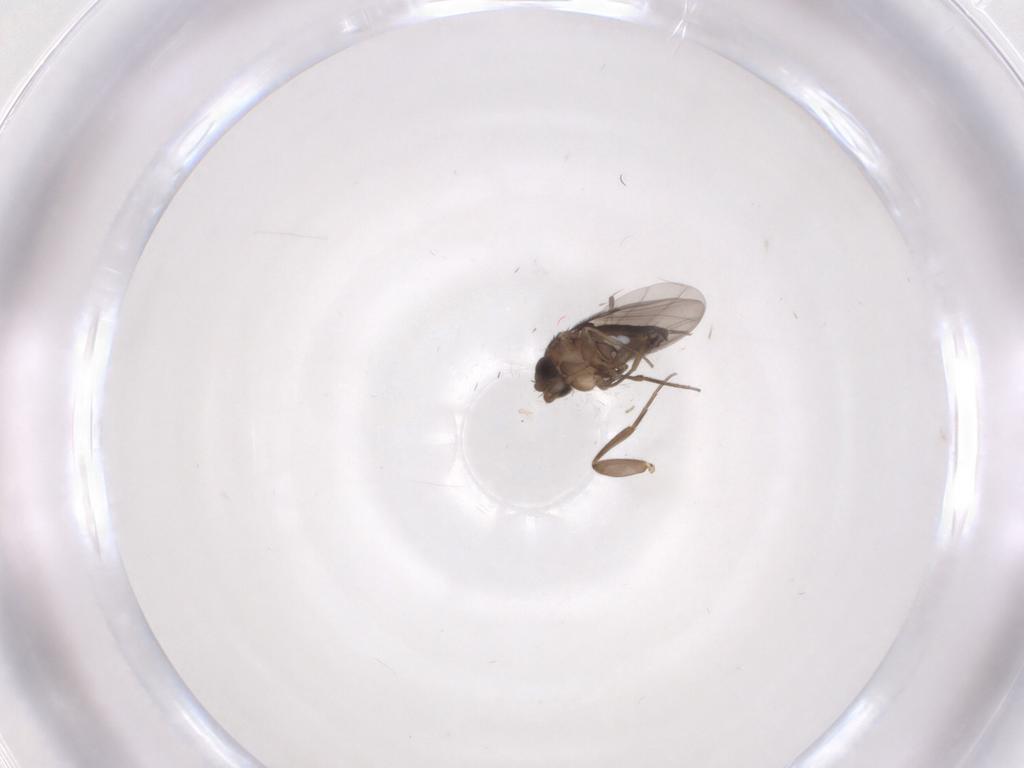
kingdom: Animalia
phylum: Arthropoda
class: Insecta
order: Diptera
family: Phoridae
